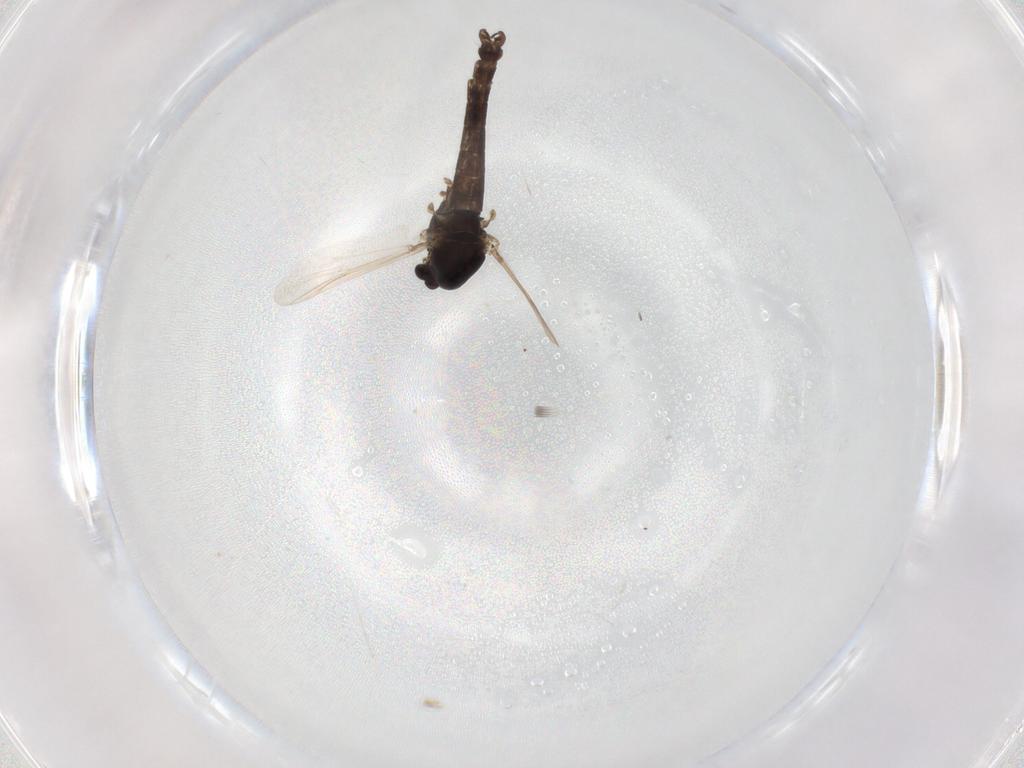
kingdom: Animalia
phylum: Arthropoda
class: Insecta
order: Diptera
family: Chironomidae
